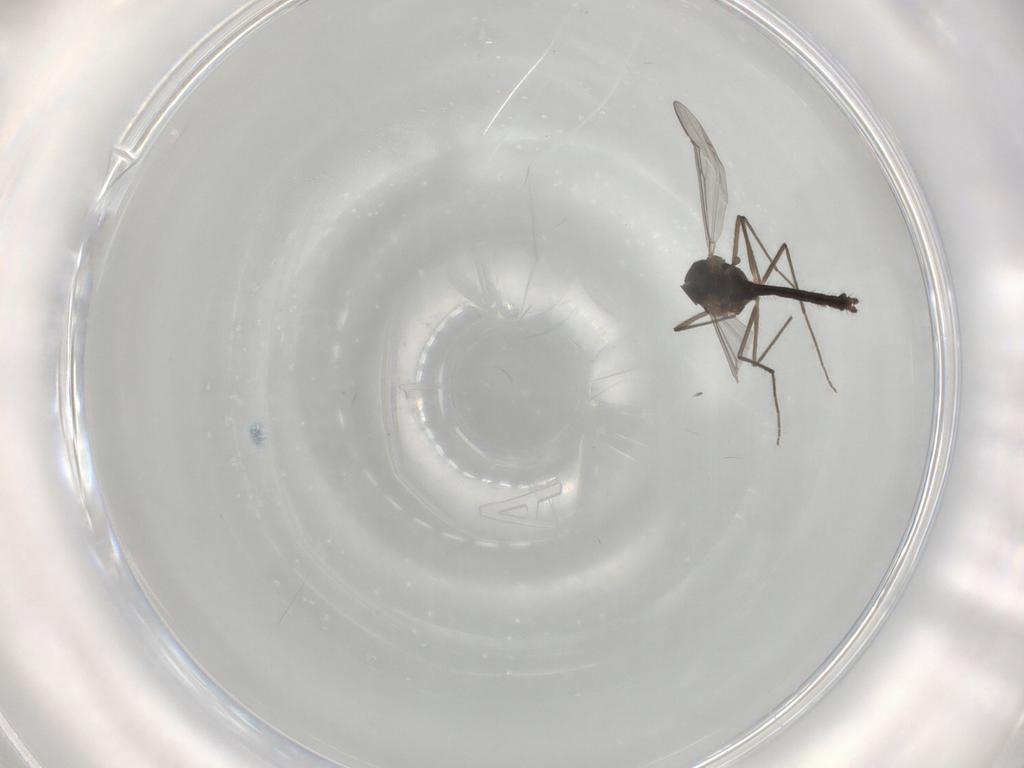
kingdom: Animalia
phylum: Arthropoda
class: Insecta
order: Diptera
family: Chironomidae
